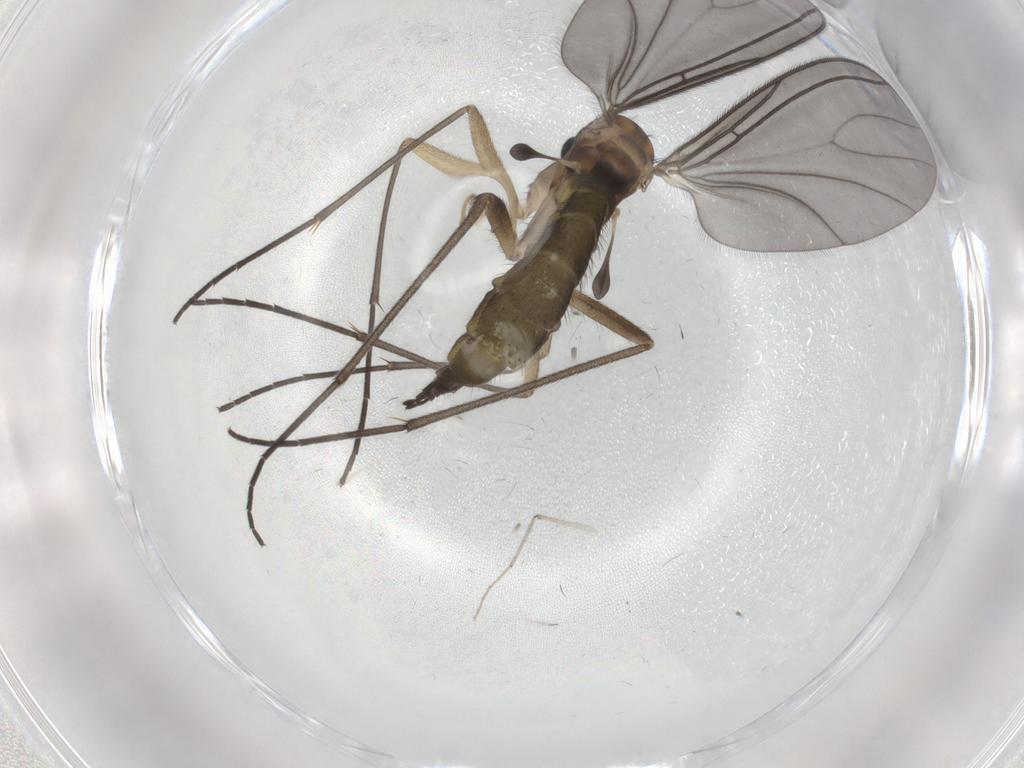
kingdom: Animalia
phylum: Arthropoda
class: Insecta
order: Diptera
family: Sciaridae
